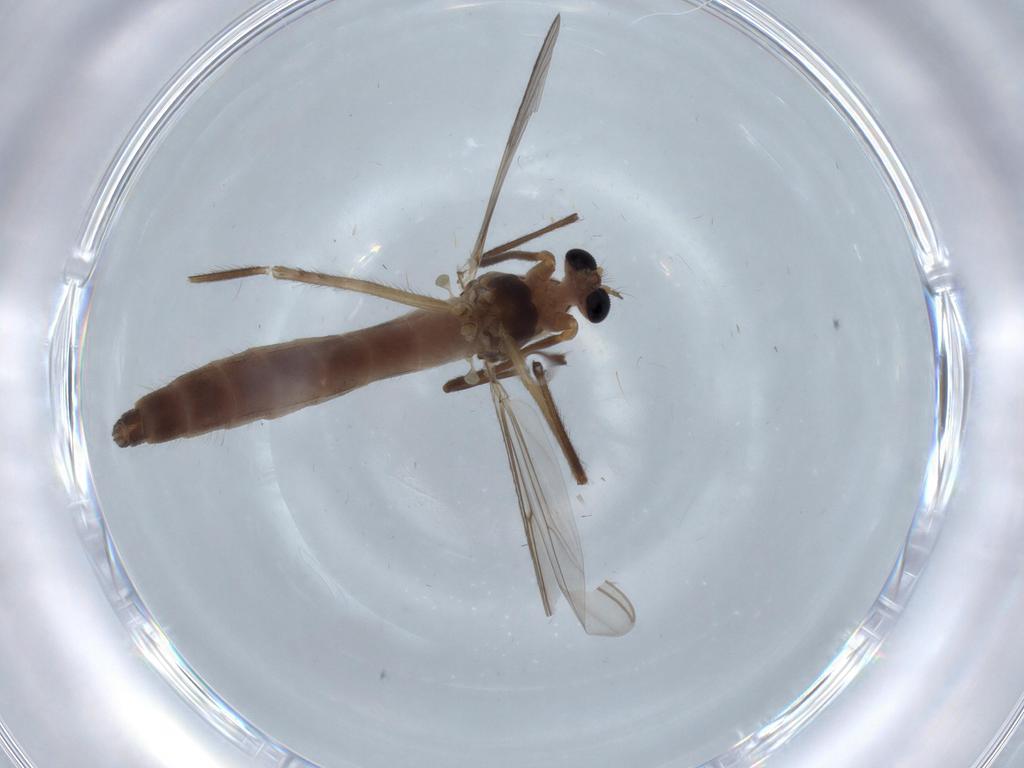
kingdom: Animalia
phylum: Arthropoda
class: Insecta
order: Diptera
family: Chironomidae
